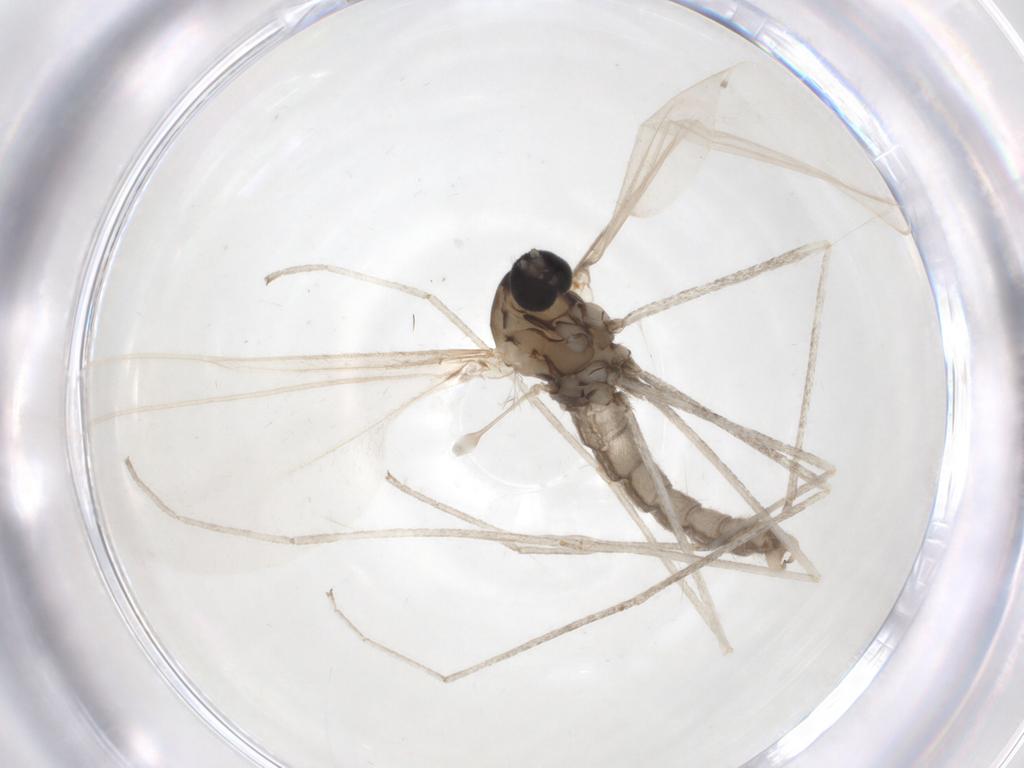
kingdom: Animalia
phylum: Arthropoda
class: Insecta
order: Diptera
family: Cecidomyiidae
